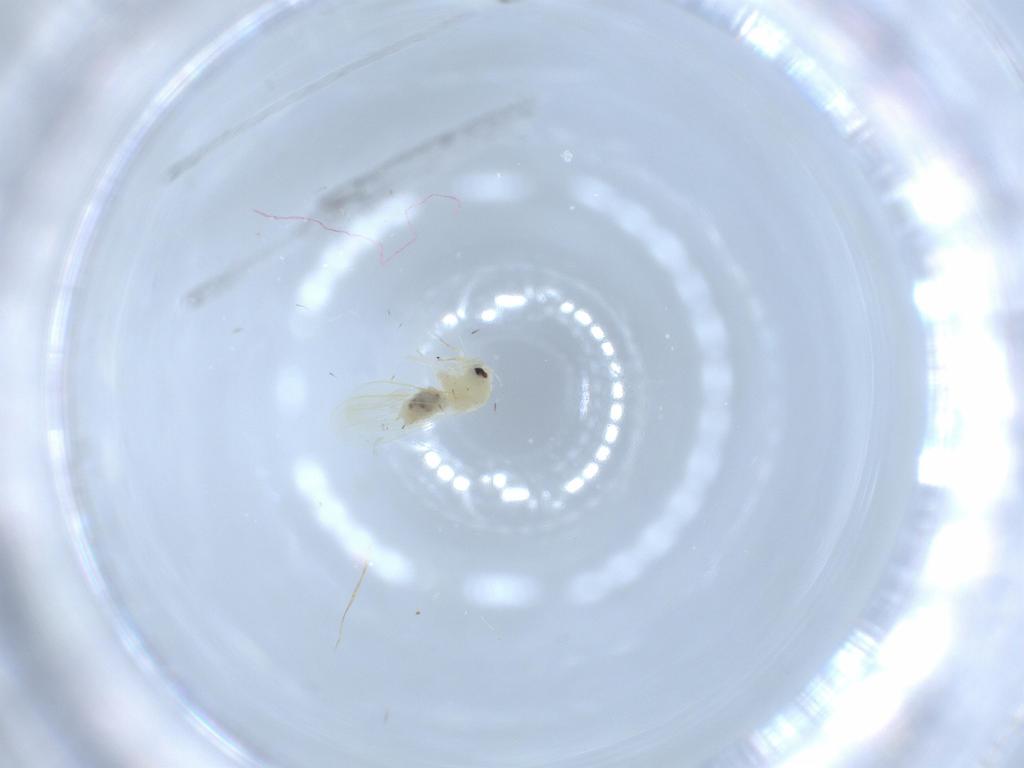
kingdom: Animalia
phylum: Arthropoda
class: Insecta
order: Hemiptera
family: Aleyrodidae
